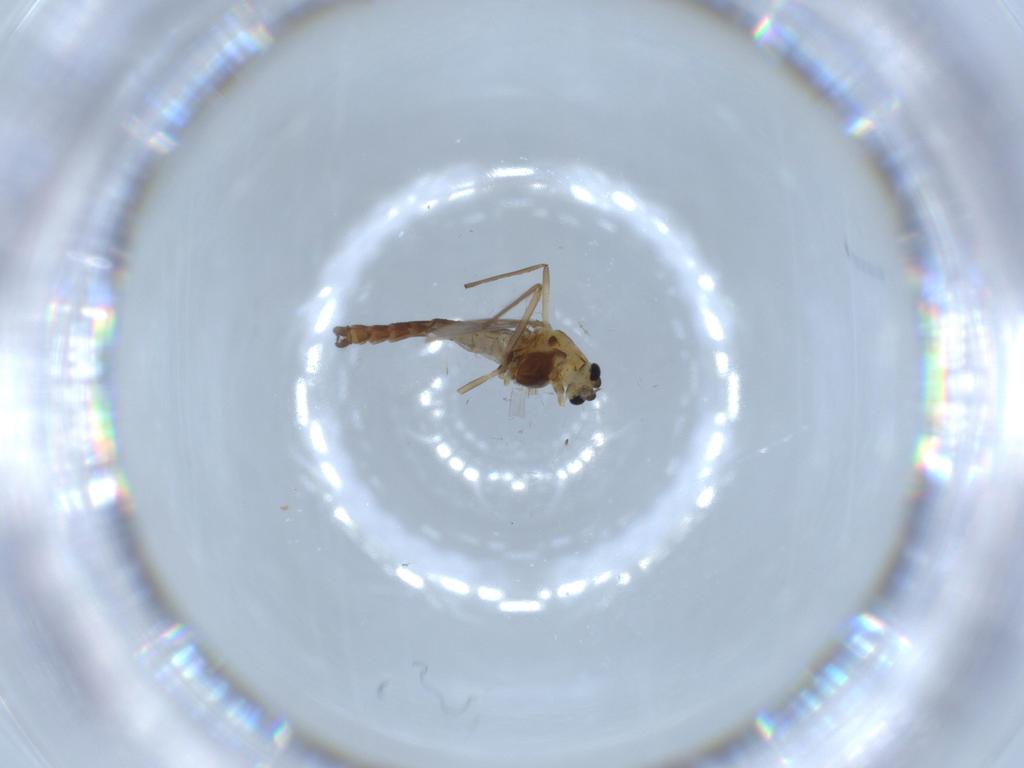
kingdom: Animalia
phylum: Arthropoda
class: Insecta
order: Diptera
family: Chironomidae
